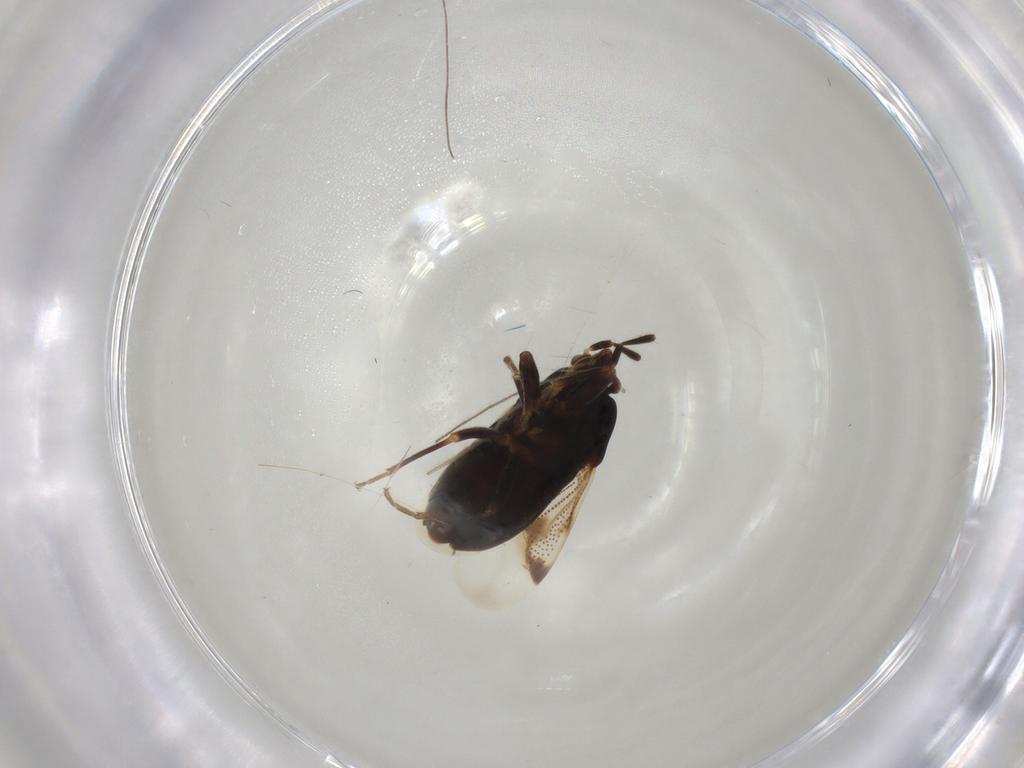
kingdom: Animalia
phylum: Arthropoda
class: Insecta
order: Hemiptera
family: Rhyparochromidae
